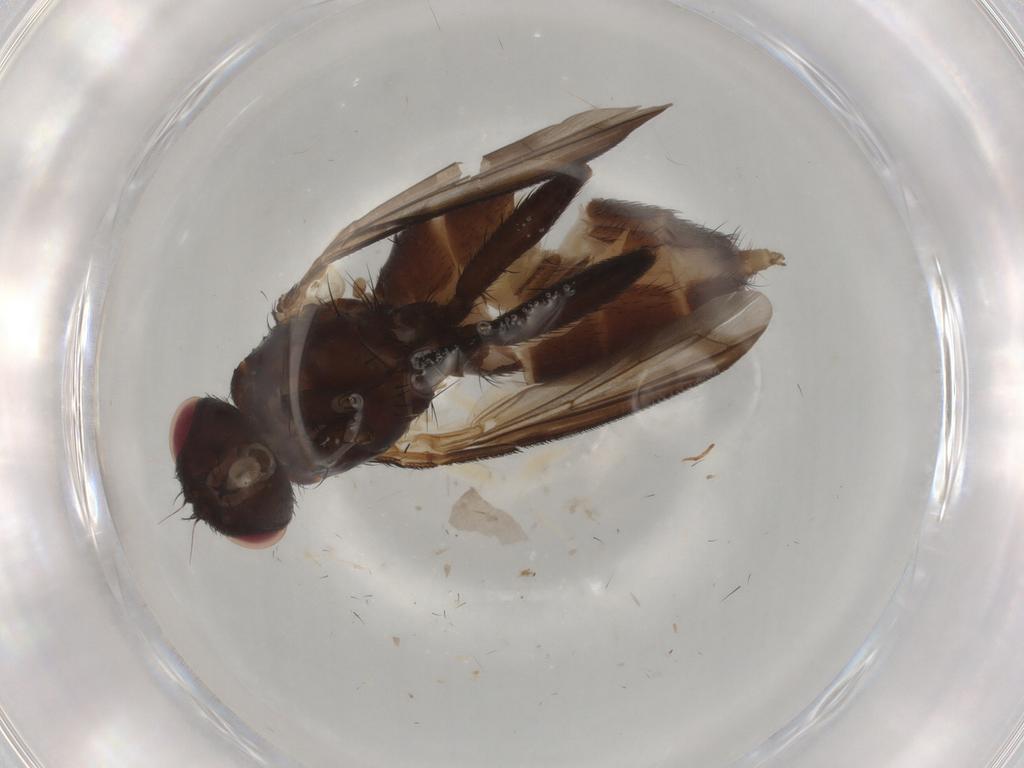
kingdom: Animalia
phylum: Arthropoda
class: Insecta
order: Diptera
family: Tachinidae
